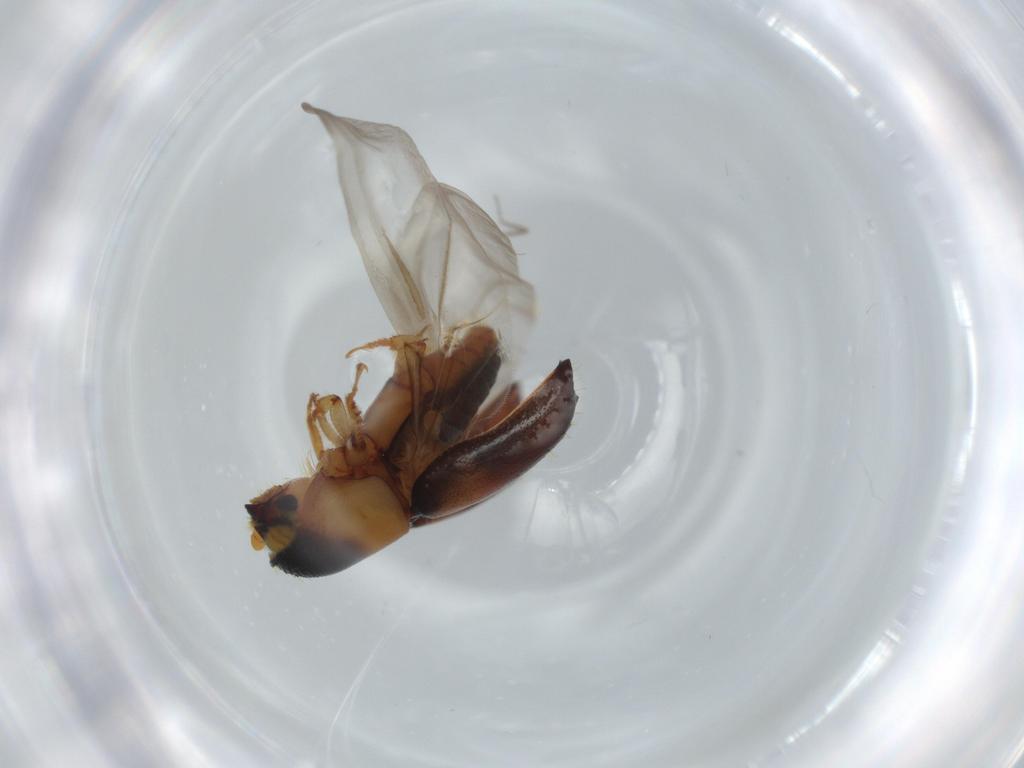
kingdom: Animalia
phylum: Arthropoda
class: Insecta
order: Coleoptera
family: Curculionidae
